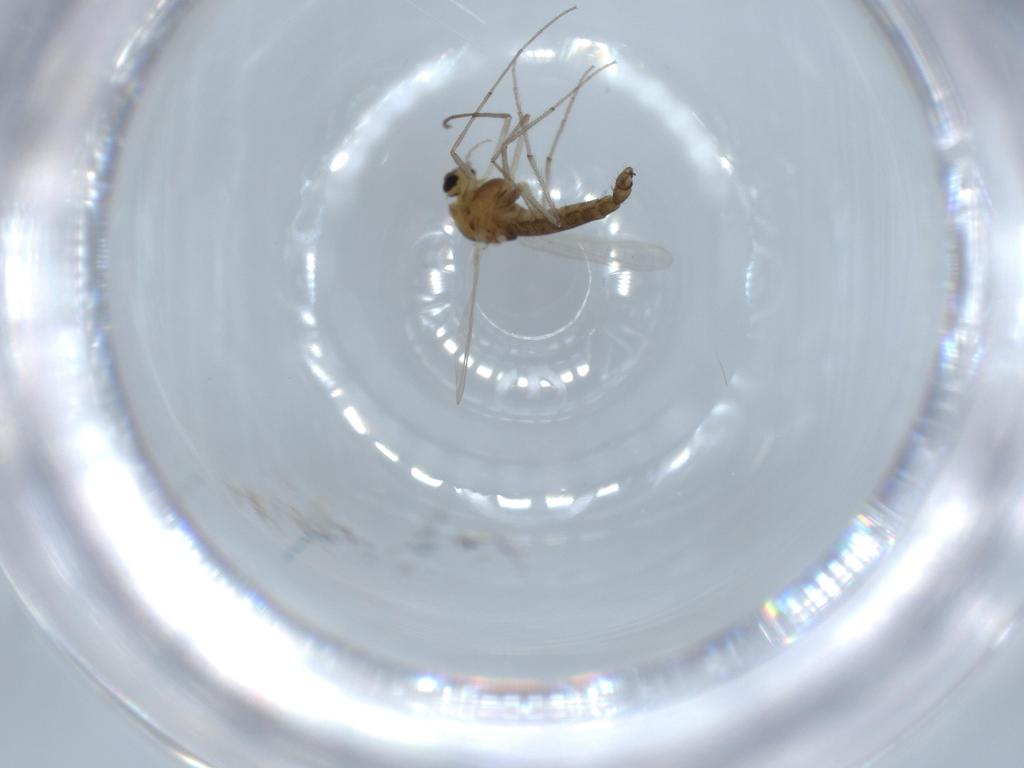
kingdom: Animalia
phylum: Arthropoda
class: Insecta
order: Diptera
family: Chironomidae
